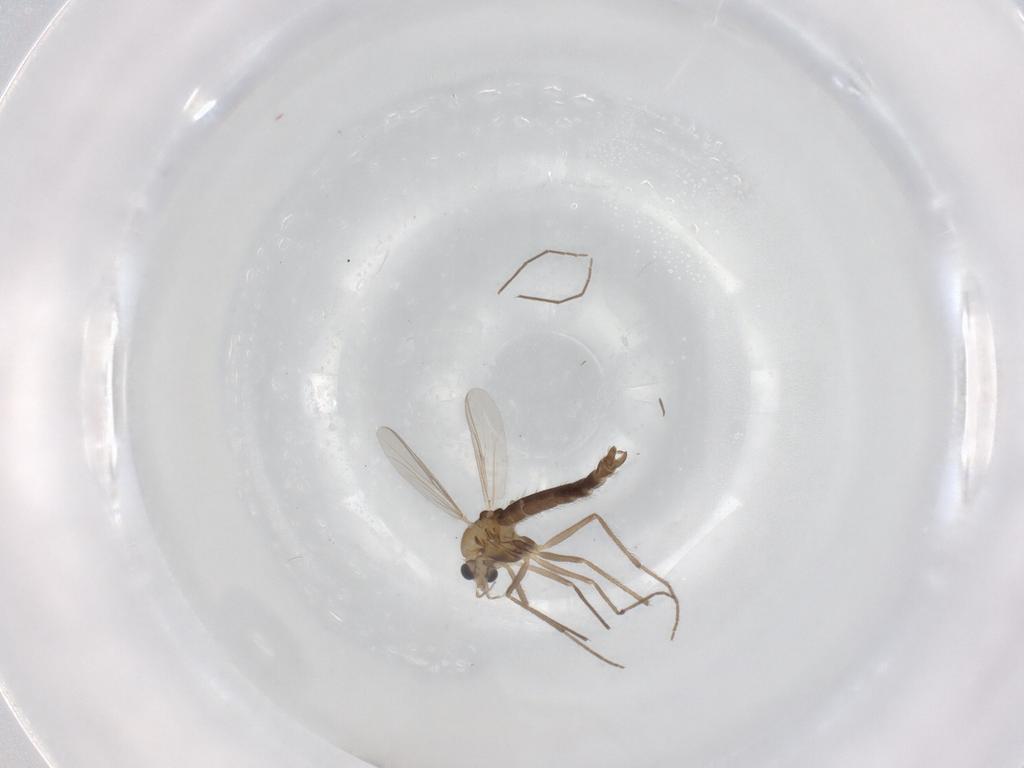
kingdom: Animalia
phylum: Arthropoda
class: Insecta
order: Diptera
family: Chironomidae
